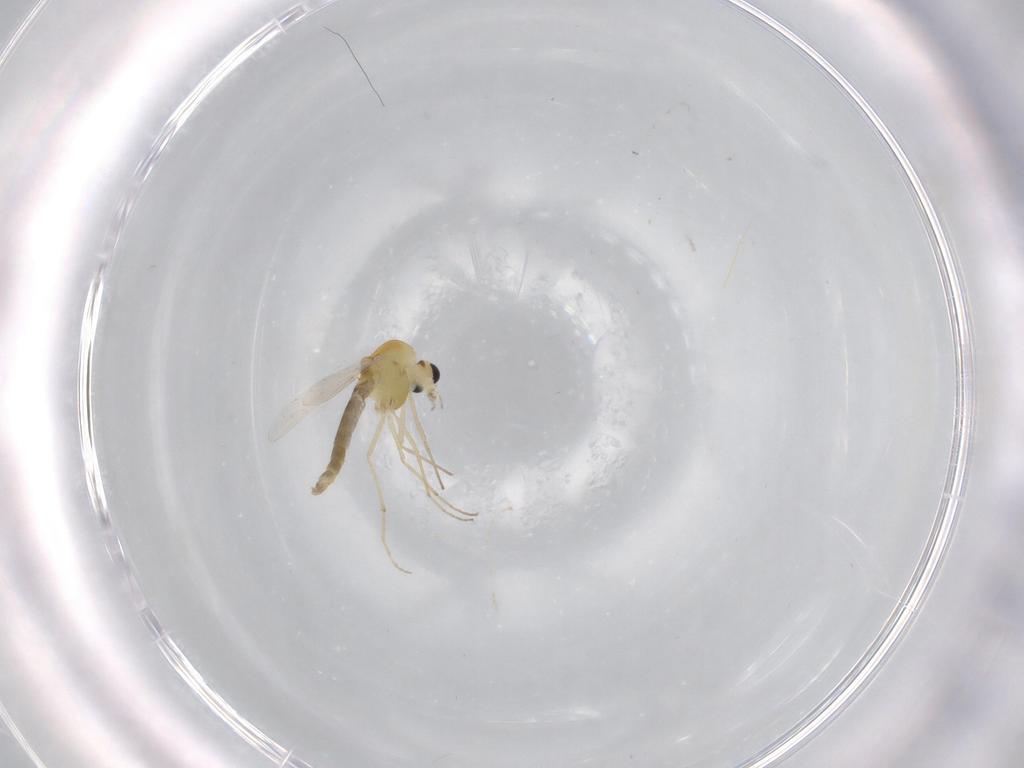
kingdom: Animalia
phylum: Arthropoda
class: Insecta
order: Diptera
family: Chironomidae
